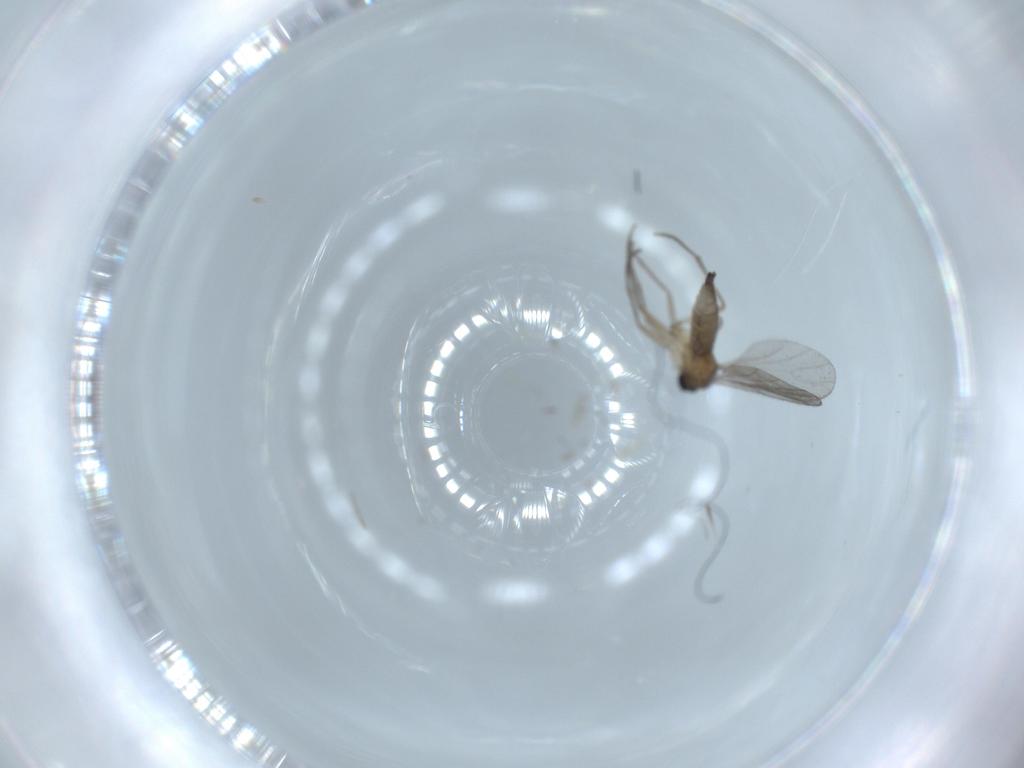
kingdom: Animalia
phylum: Arthropoda
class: Insecta
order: Diptera
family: Sciaridae
